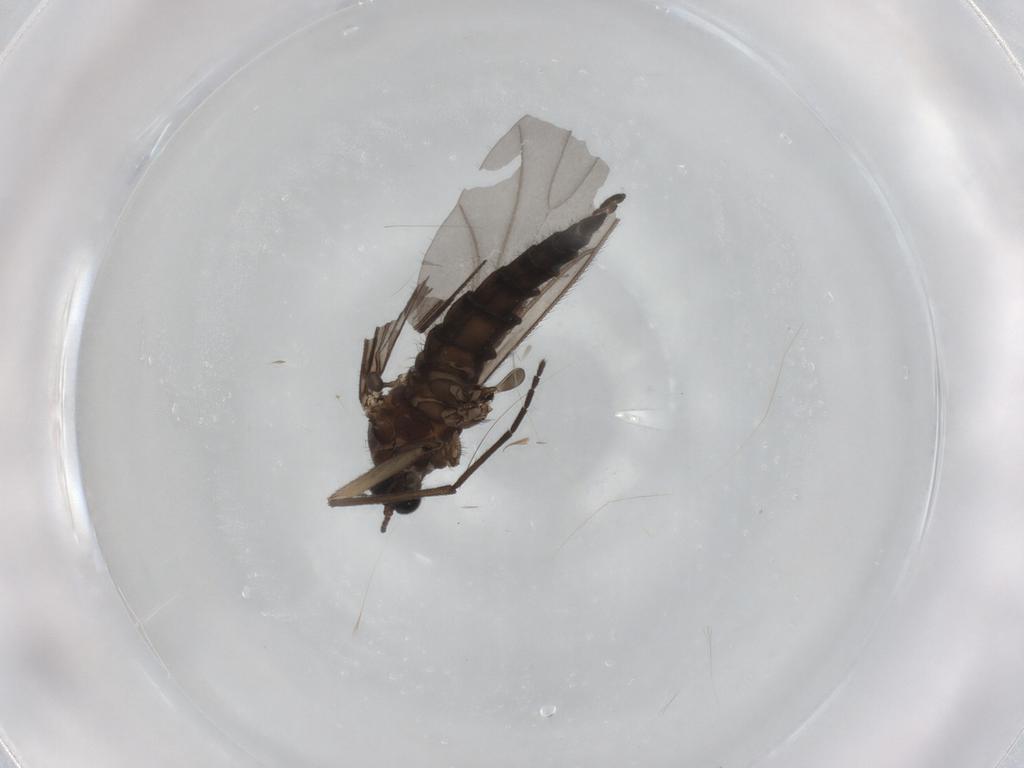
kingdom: Animalia
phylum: Arthropoda
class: Insecta
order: Diptera
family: Sciaridae
